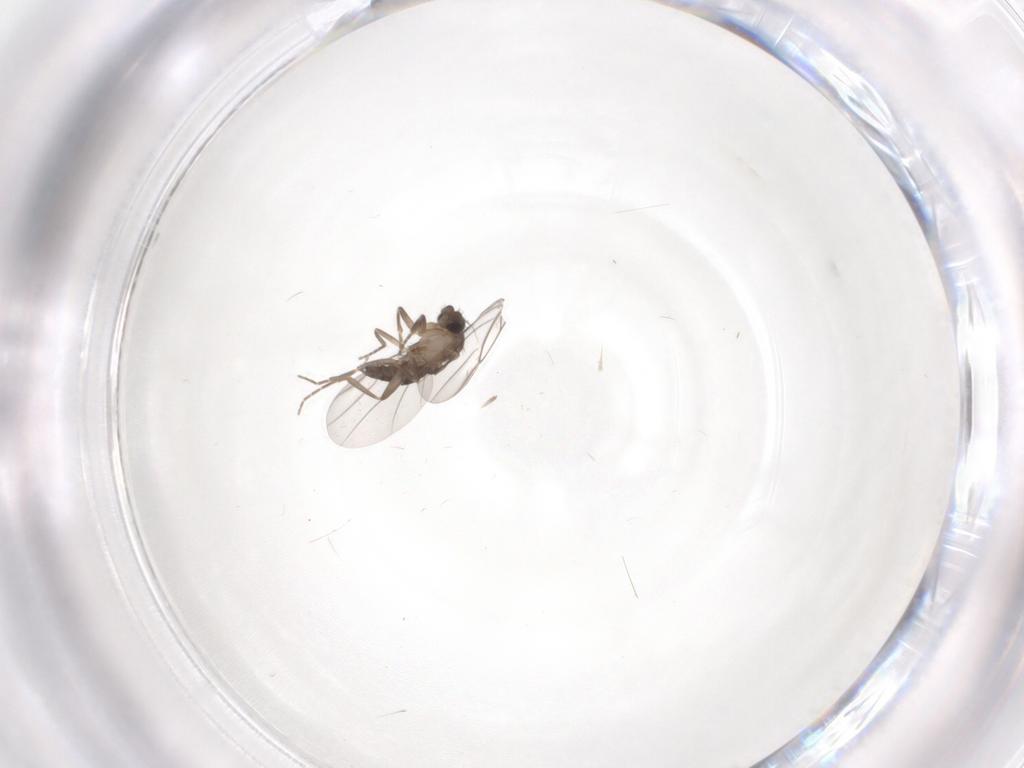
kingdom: Animalia
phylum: Arthropoda
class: Insecta
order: Diptera
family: Phoridae
